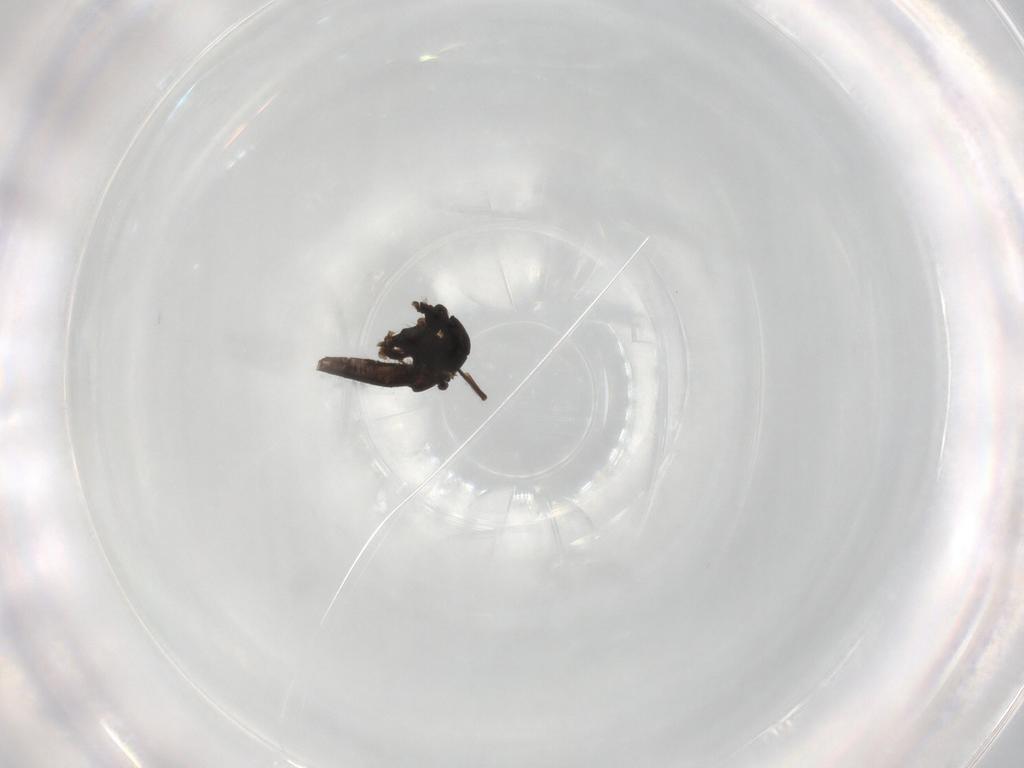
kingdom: Animalia
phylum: Arthropoda
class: Insecta
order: Diptera
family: Chironomidae
